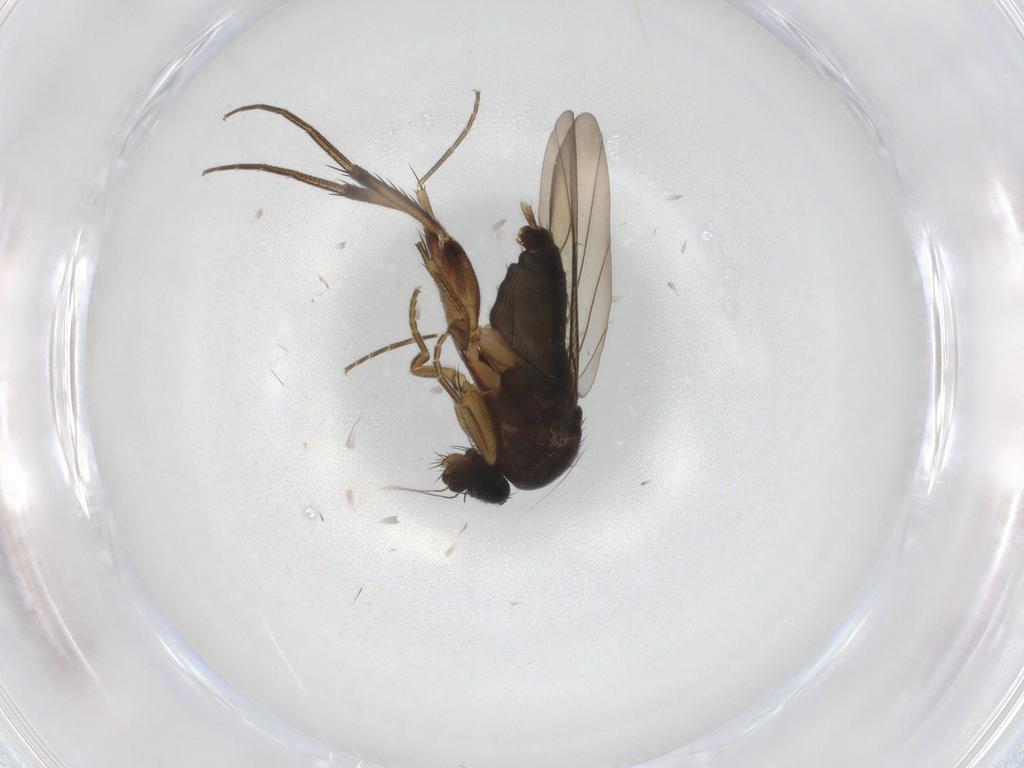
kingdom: Animalia
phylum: Arthropoda
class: Insecta
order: Diptera
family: Phoridae
